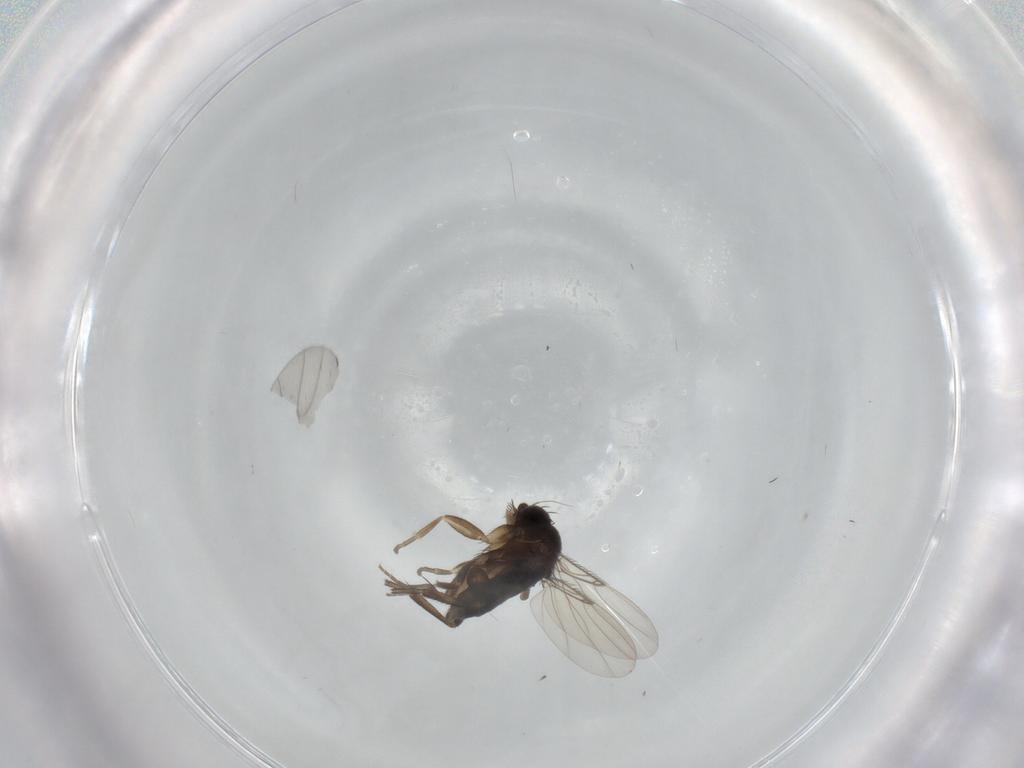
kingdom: Animalia
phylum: Arthropoda
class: Insecta
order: Diptera
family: Phoridae
